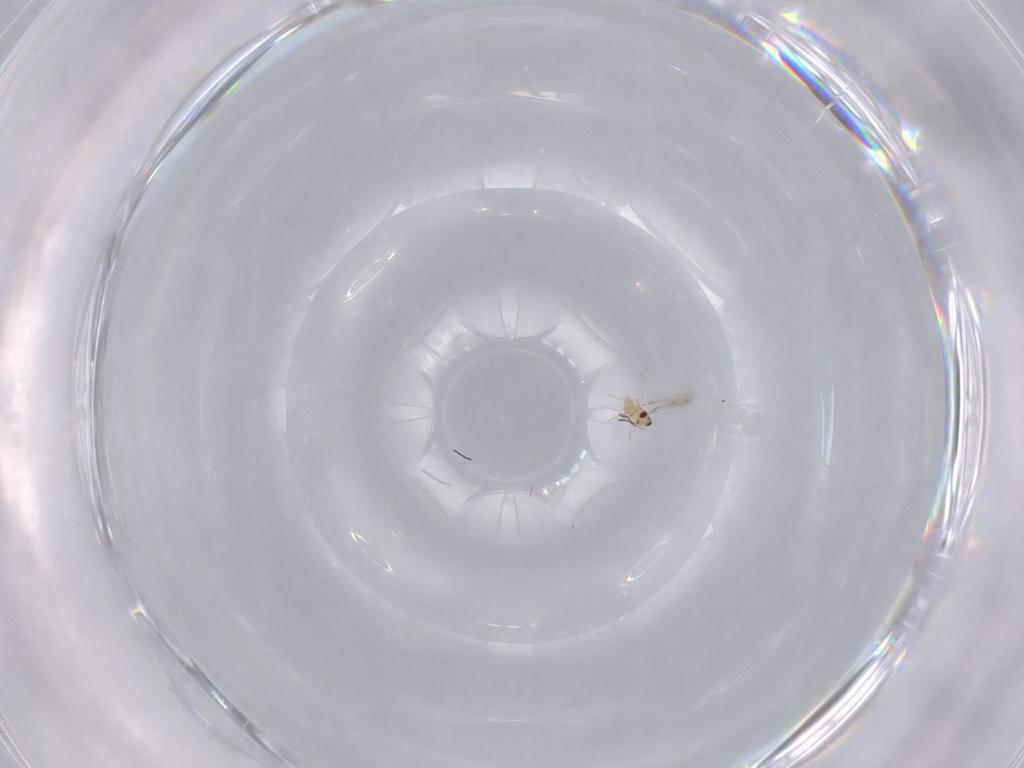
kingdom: Animalia
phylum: Arthropoda
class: Insecta
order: Hymenoptera
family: Mymaridae
